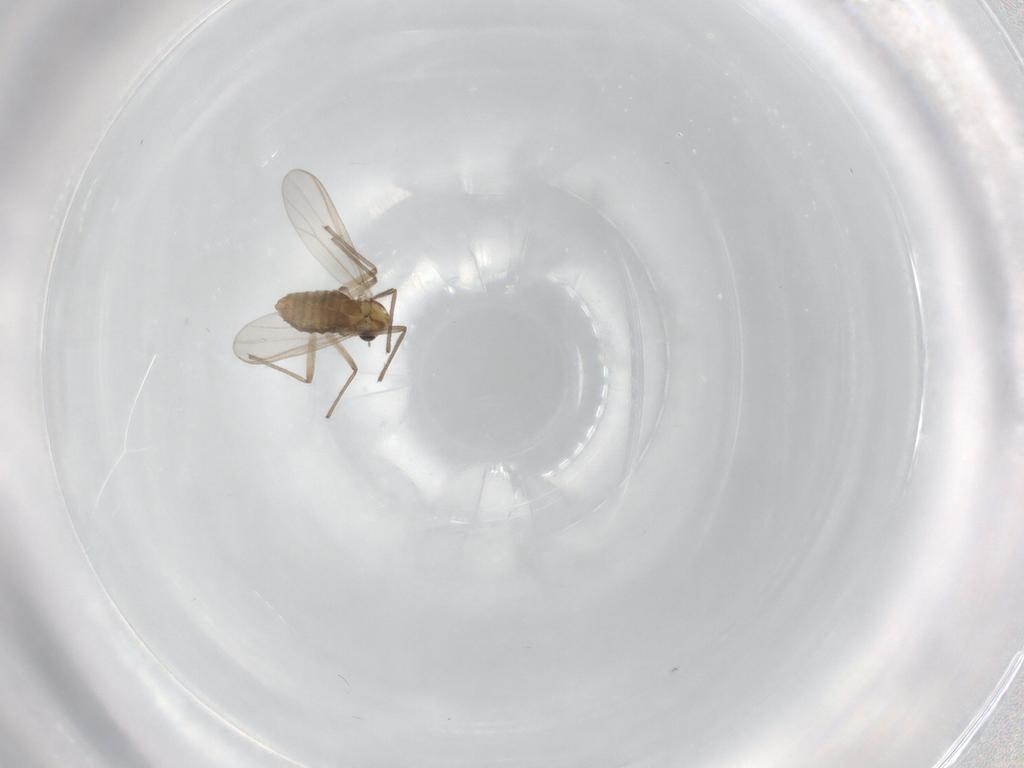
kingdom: Animalia
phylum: Arthropoda
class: Insecta
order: Diptera
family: Chironomidae
